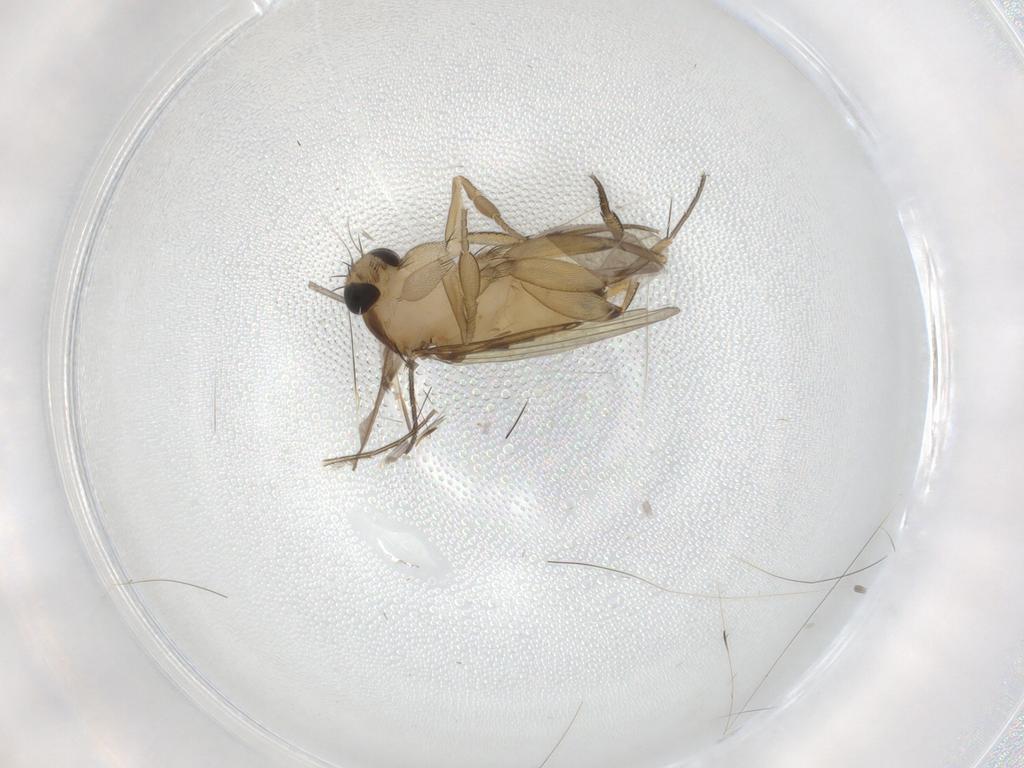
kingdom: Animalia
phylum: Arthropoda
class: Insecta
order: Diptera
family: Phoridae
